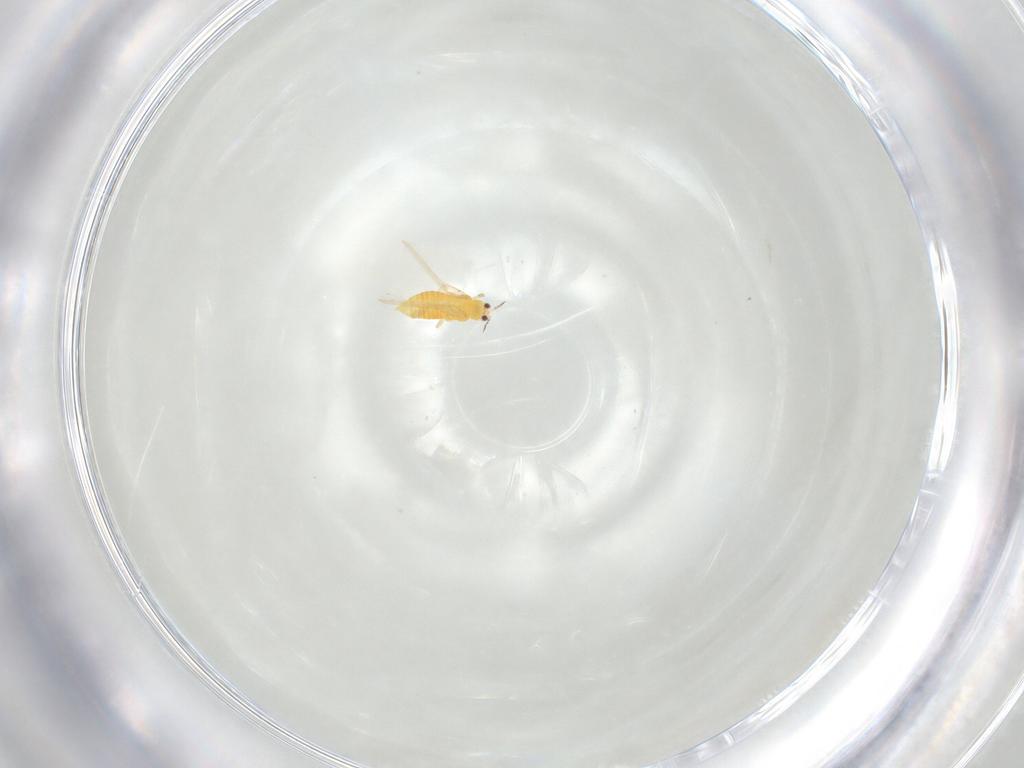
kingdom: Animalia
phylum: Arthropoda
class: Insecta
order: Thysanoptera
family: Thripidae
